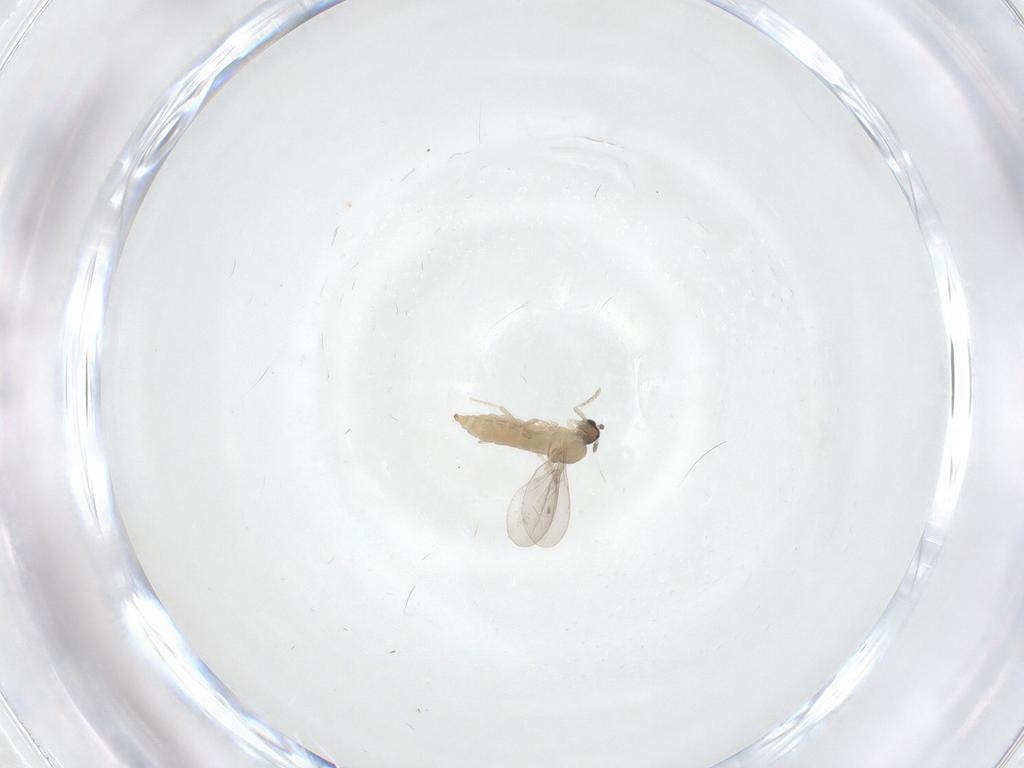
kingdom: Animalia
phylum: Arthropoda
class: Insecta
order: Diptera
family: Cecidomyiidae
